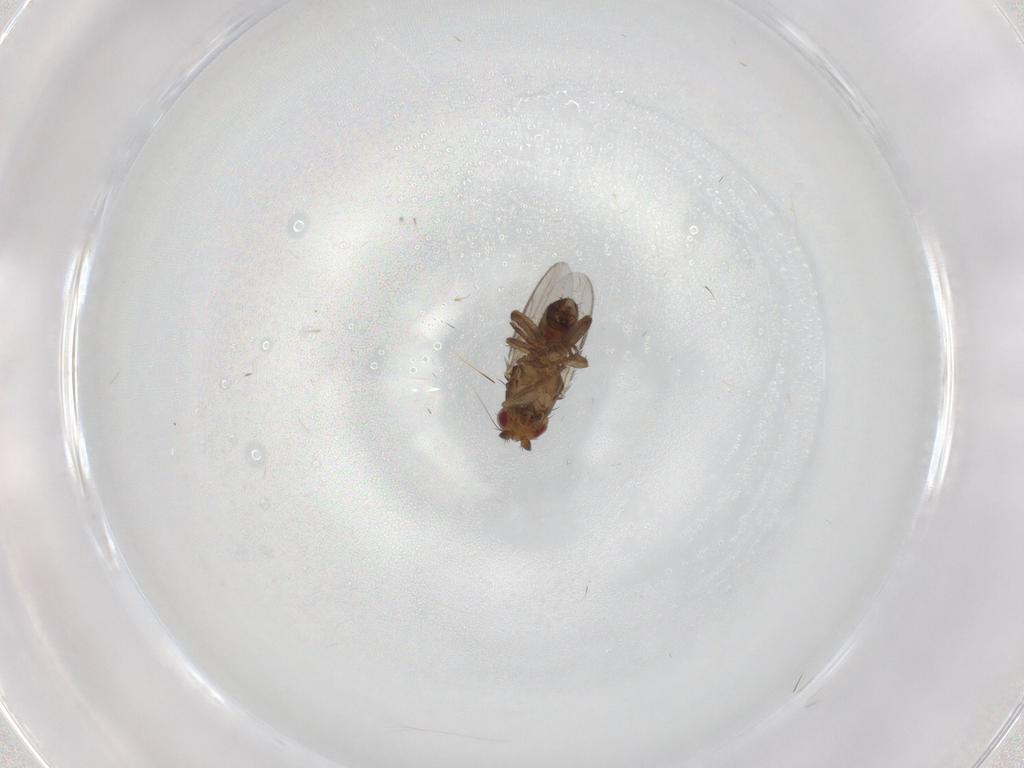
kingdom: Animalia
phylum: Arthropoda
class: Insecta
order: Diptera
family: Ceratopogonidae
